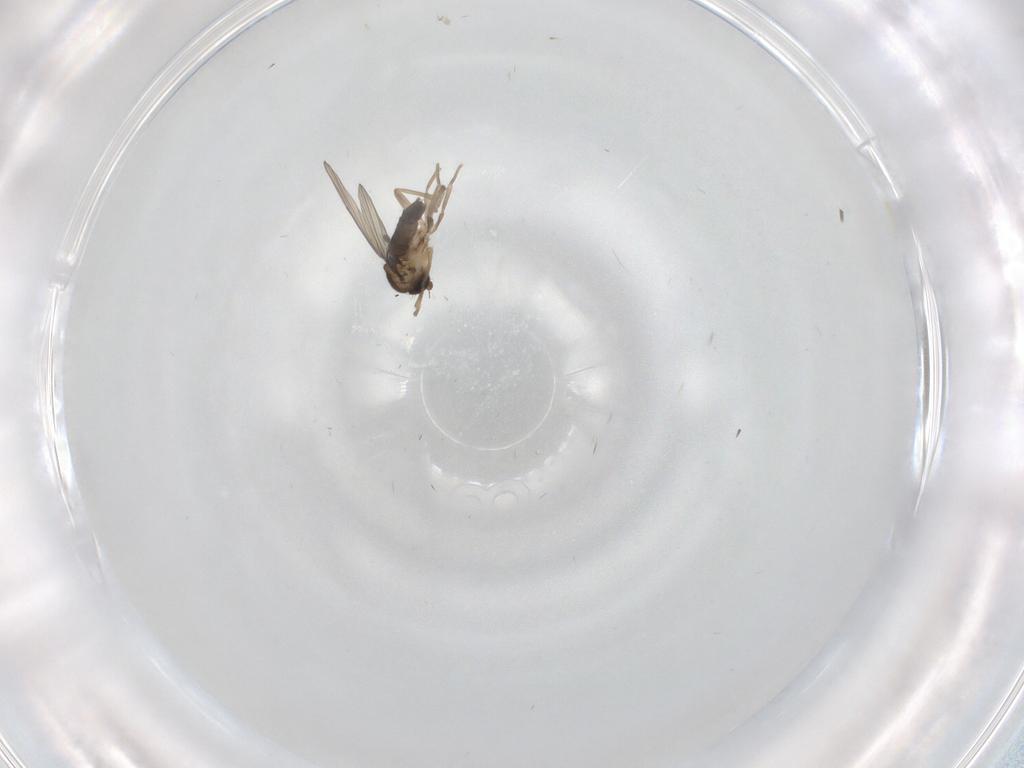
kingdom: Animalia
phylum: Arthropoda
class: Insecta
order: Diptera
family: Phoridae
